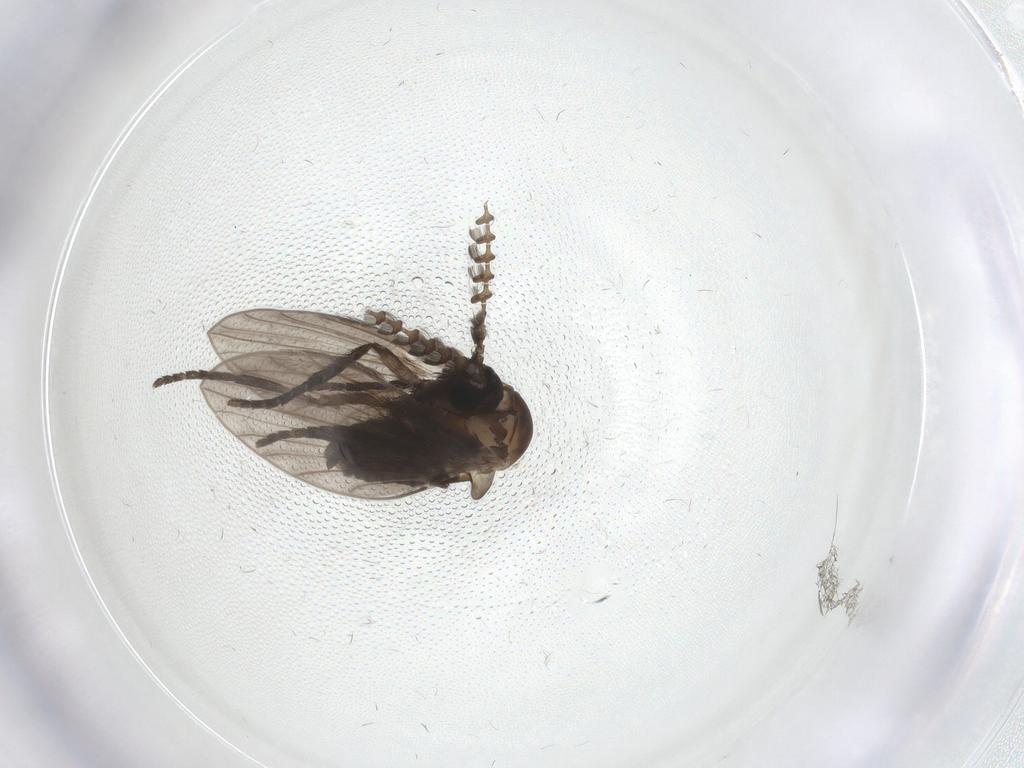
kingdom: Animalia
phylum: Arthropoda
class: Insecta
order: Diptera
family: Psychodidae
